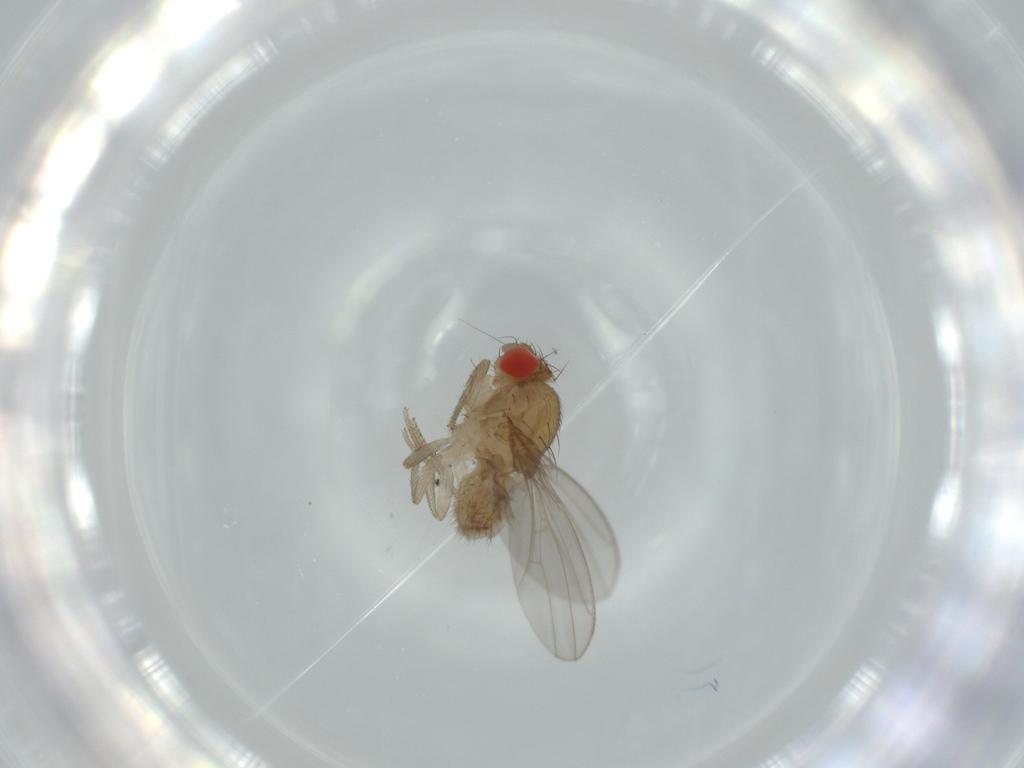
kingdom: Animalia
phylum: Arthropoda
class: Insecta
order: Diptera
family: Drosophilidae
